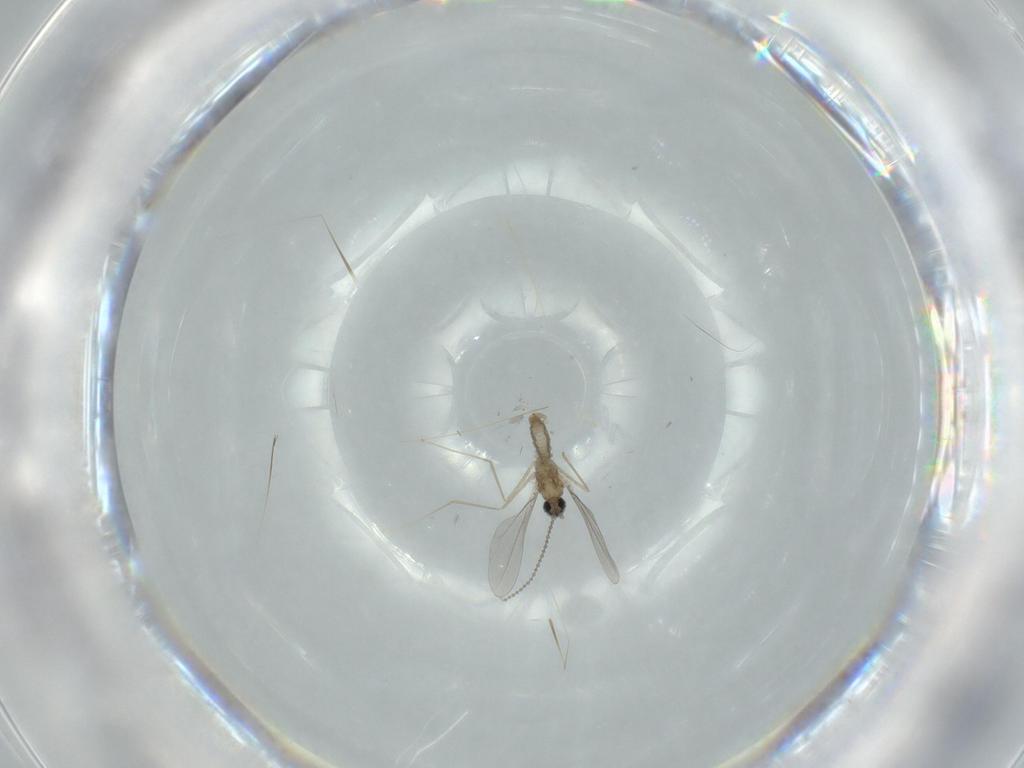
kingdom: Animalia
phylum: Arthropoda
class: Insecta
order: Diptera
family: Cecidomyiidae
